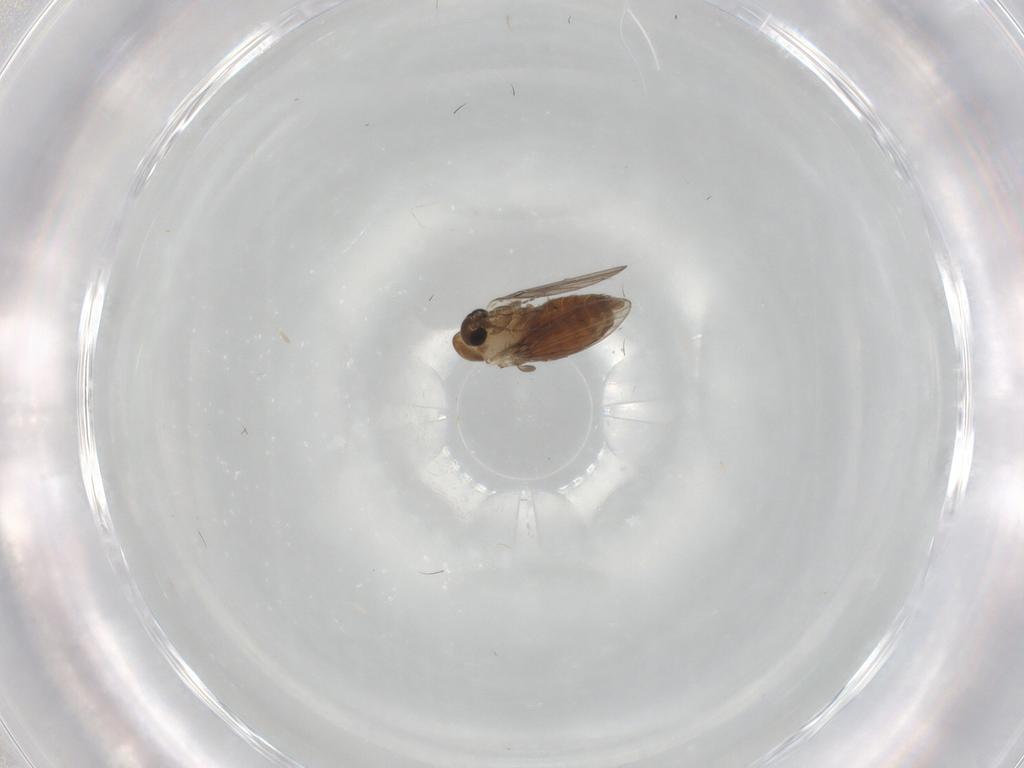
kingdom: Animalia
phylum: Arthropoda
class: Insecta
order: Diptera
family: Psychodidae
